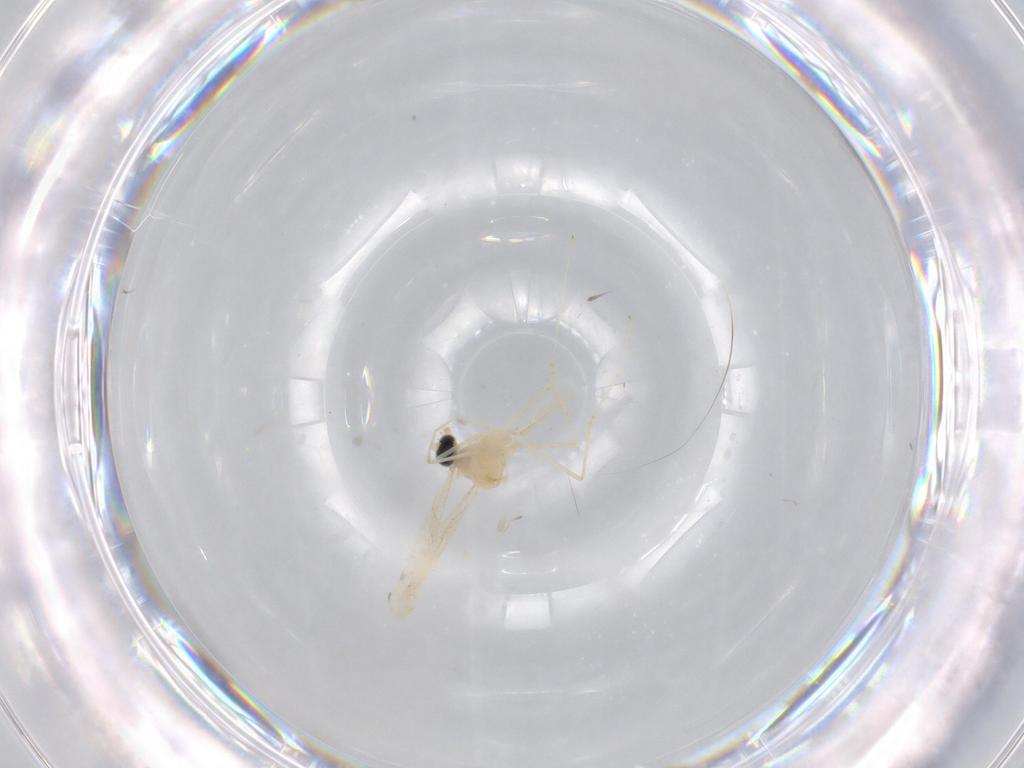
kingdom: Animalia
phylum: Arthropoda
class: Insecta
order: Diptera
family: Cecidomyiidae
